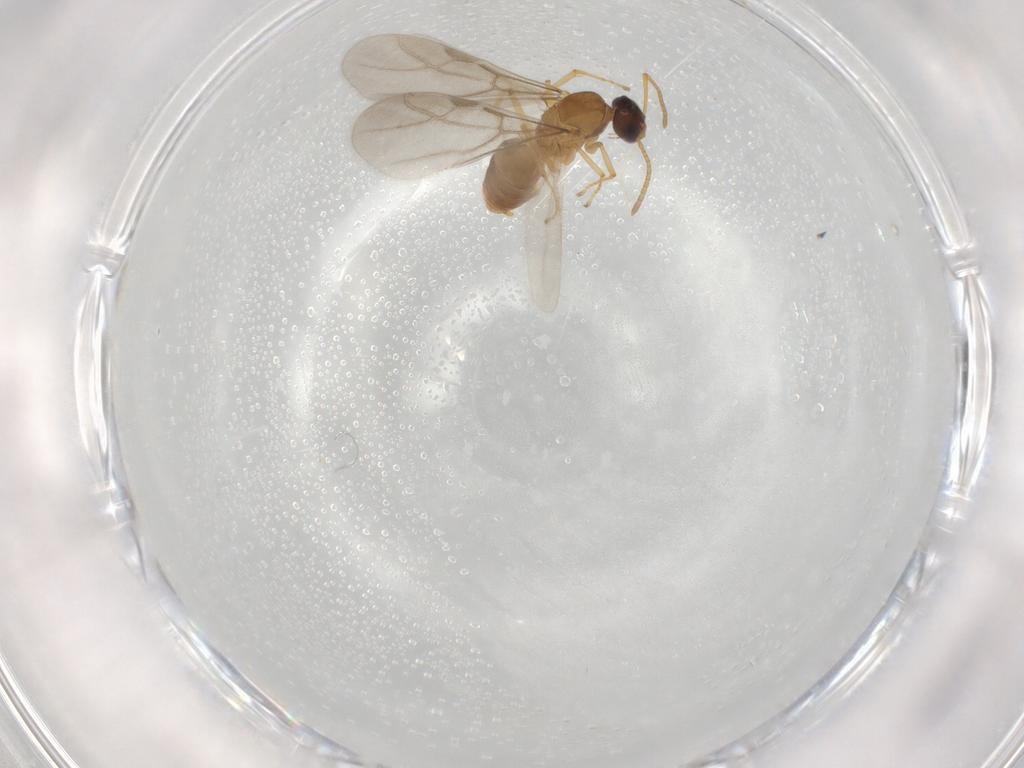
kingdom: Animalia
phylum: Arthropoda
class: Insecta
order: Hymenoptera
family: Formicidae
